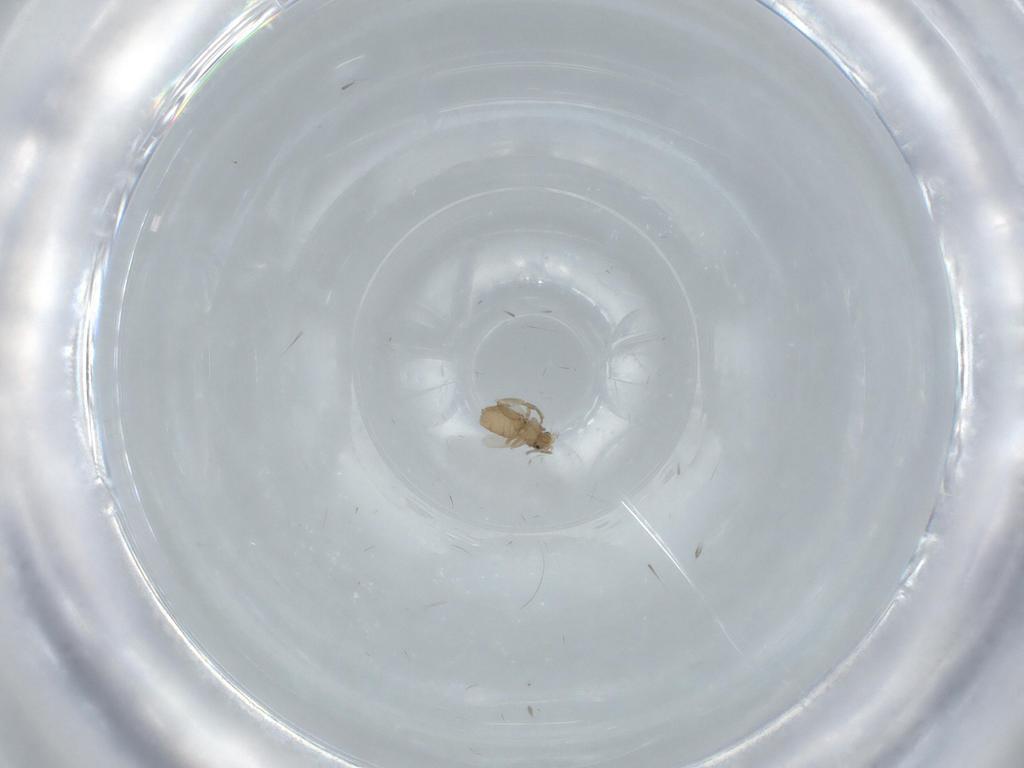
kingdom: Animalia
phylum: Arthropoda
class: Insecta
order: Diptera
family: Phoridae
